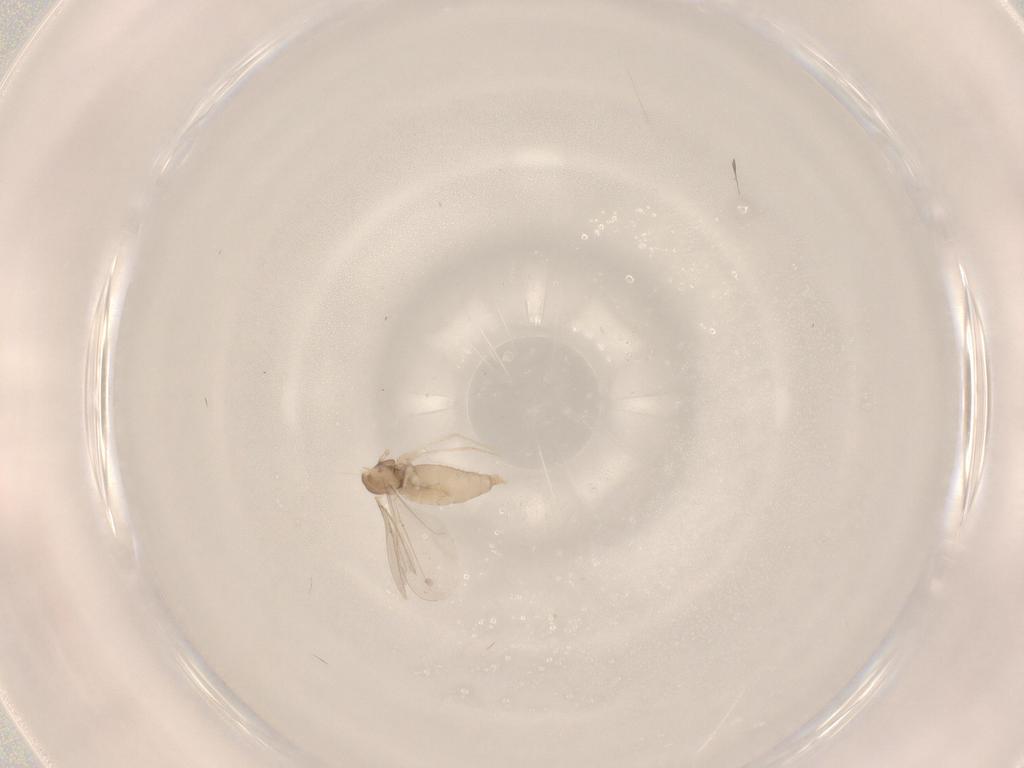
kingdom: Animalia
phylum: Arthropoda
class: Insecta
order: Diptera
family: Cecidomyiidae
